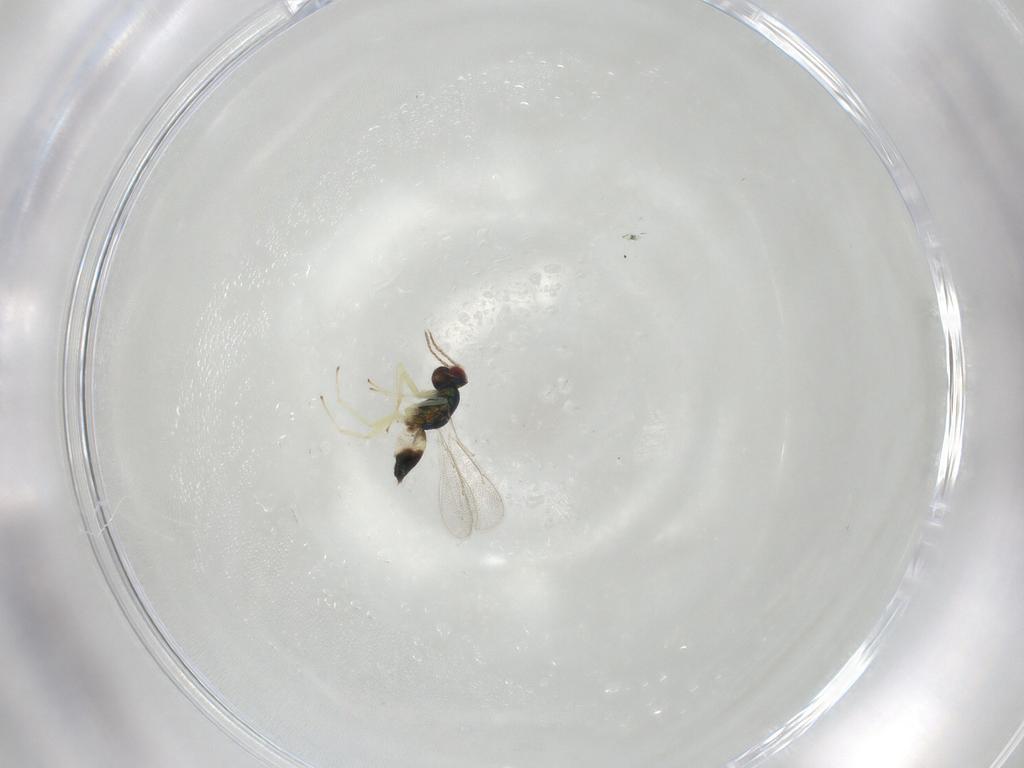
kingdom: Animalia
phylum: Arthropoda
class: Insecta
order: Hymenoptera
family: Eulophidae
